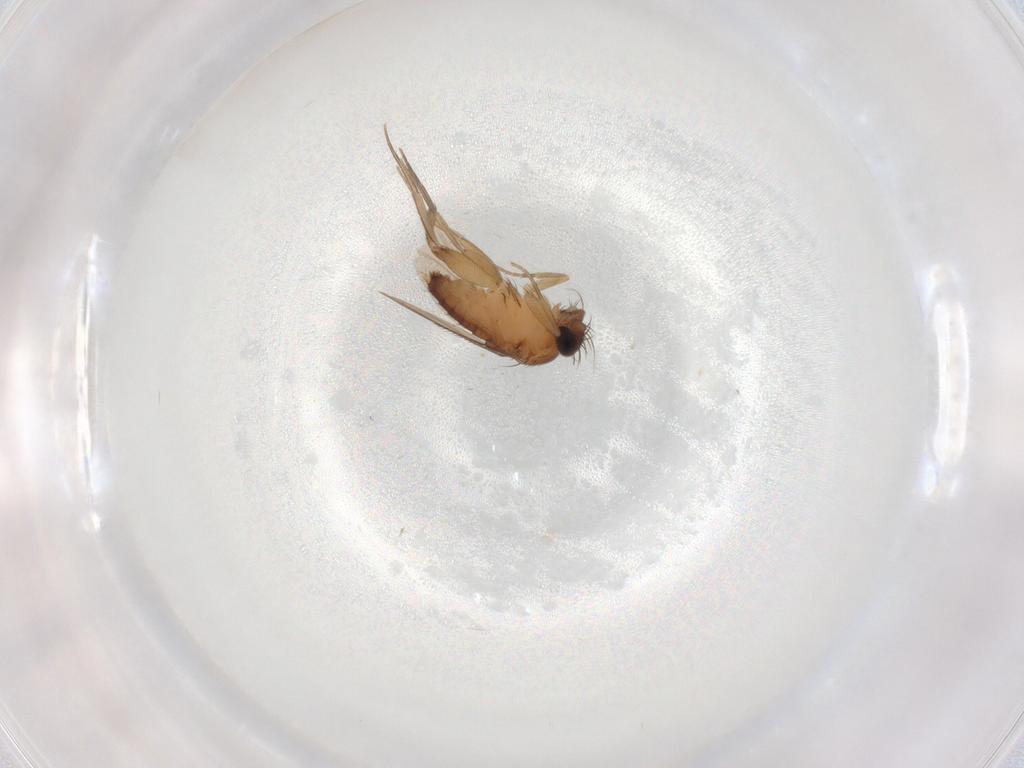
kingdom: Animalia
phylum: Arthropoda
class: Insecta
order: Diptera
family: Cecidomyiidae
